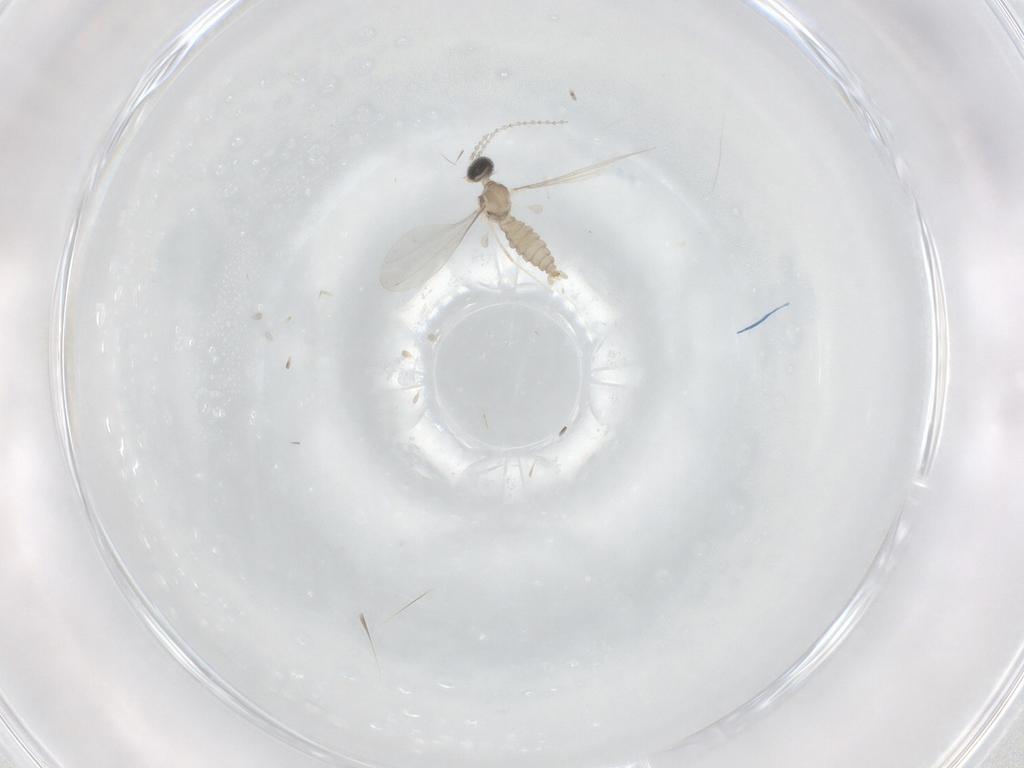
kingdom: Animalia
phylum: Arthropoda
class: Insecta
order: Diptera
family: Cecidomyiidae
